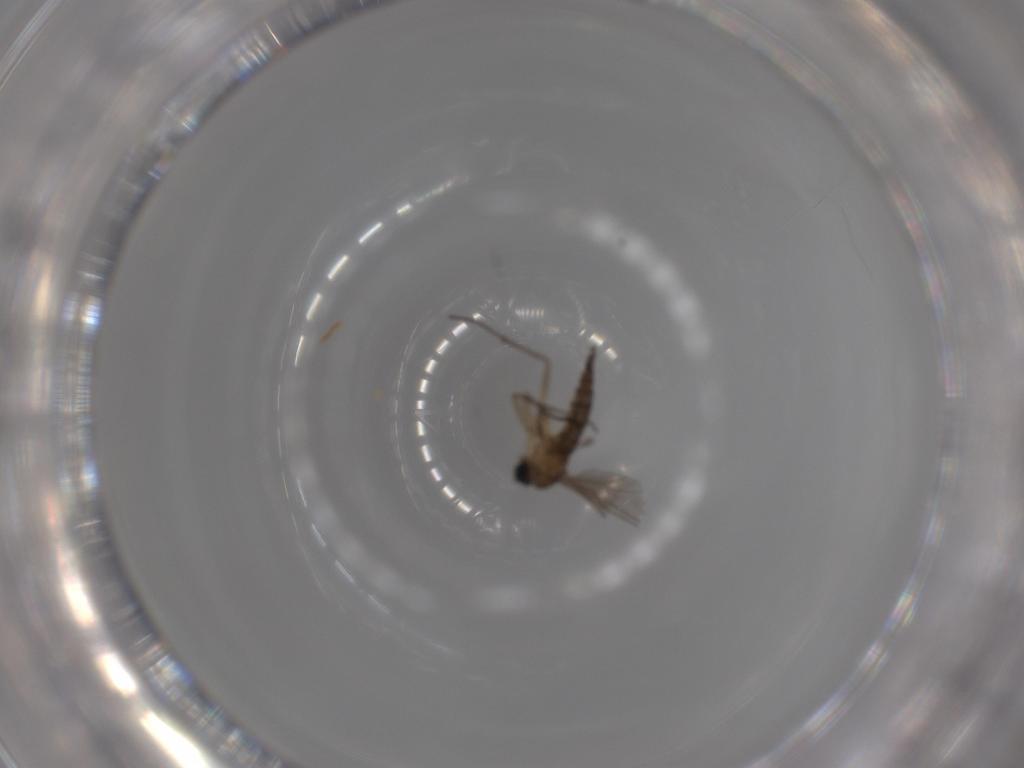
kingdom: Animalia
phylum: Arthropoda
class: Insecta
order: Diptera
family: Sciaridae
